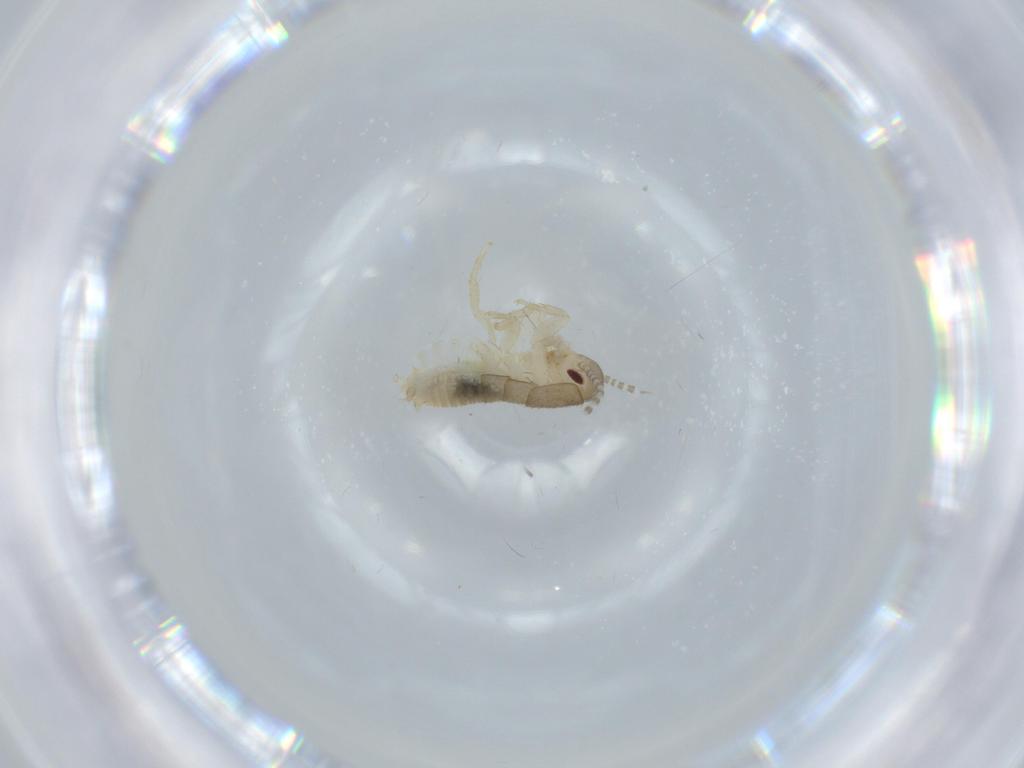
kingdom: Animalia
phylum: Arthropoda
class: Insecta
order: Blattodea
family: Ectobiidae
